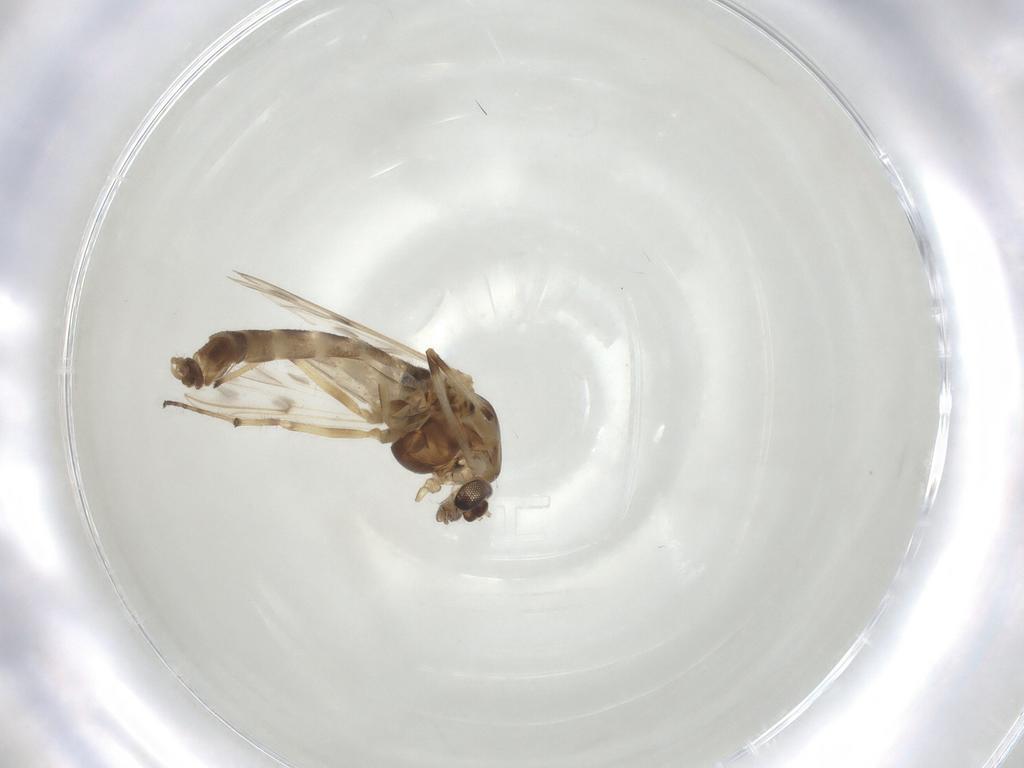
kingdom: Animalia
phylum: Arthropoda
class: Insecta
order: Diptera
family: Chironomidae
